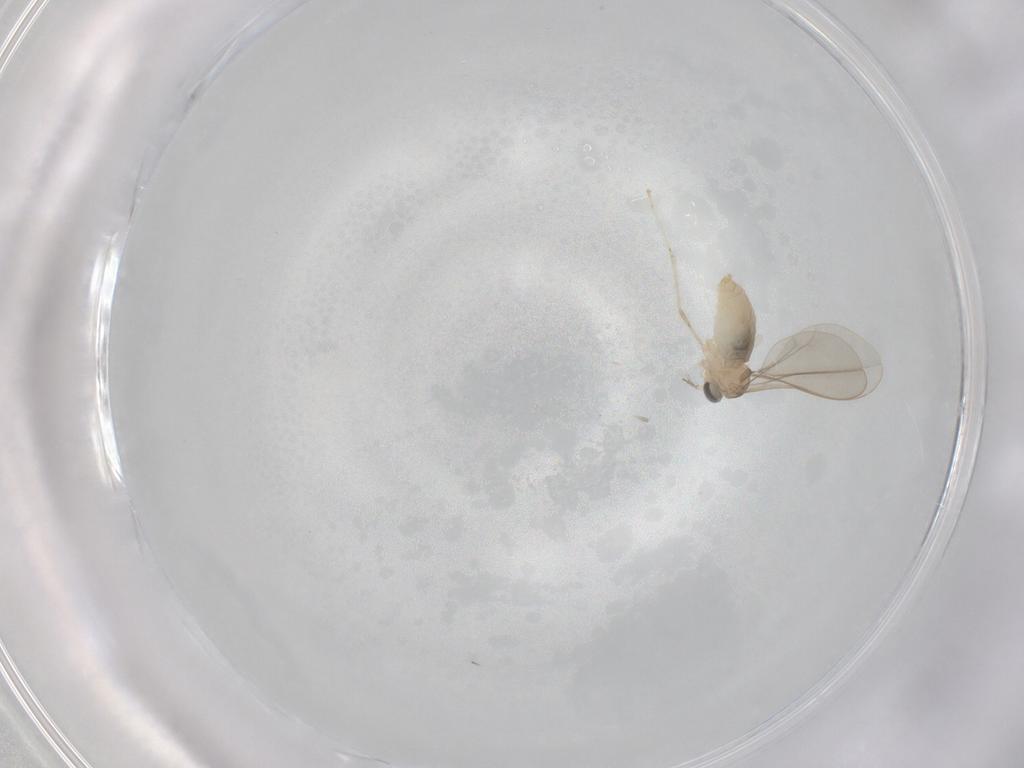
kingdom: Animalia
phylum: Arthropoda
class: Insecta
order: Diptera
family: Cecidomyiidae
